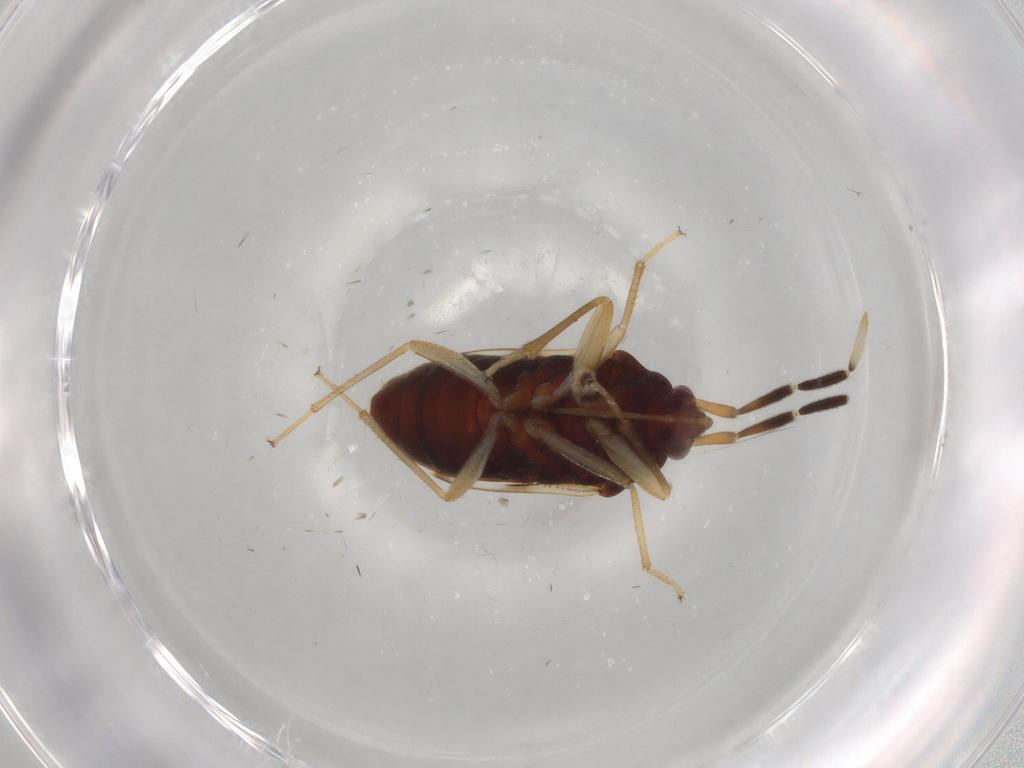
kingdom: Animalia
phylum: Arthropoda
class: Insecta
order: Hemiptera
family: Rhyparochromidae
